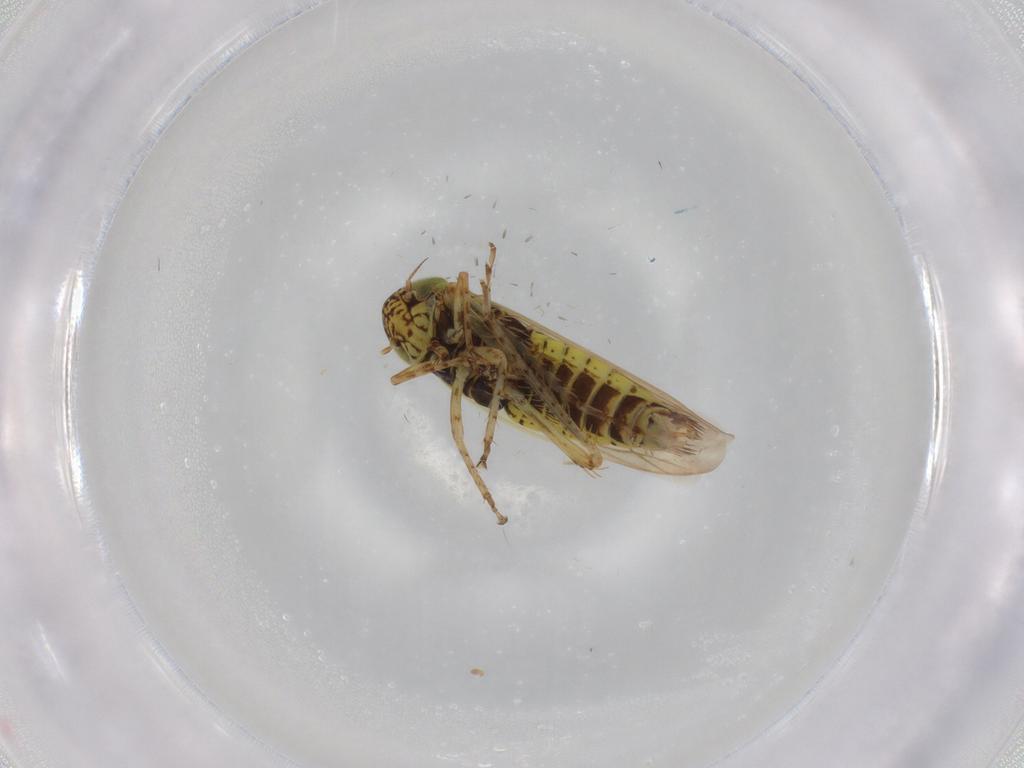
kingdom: Animalia
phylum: Arthropoda
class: Insecta
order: Hemiptera
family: Cicadellidae
